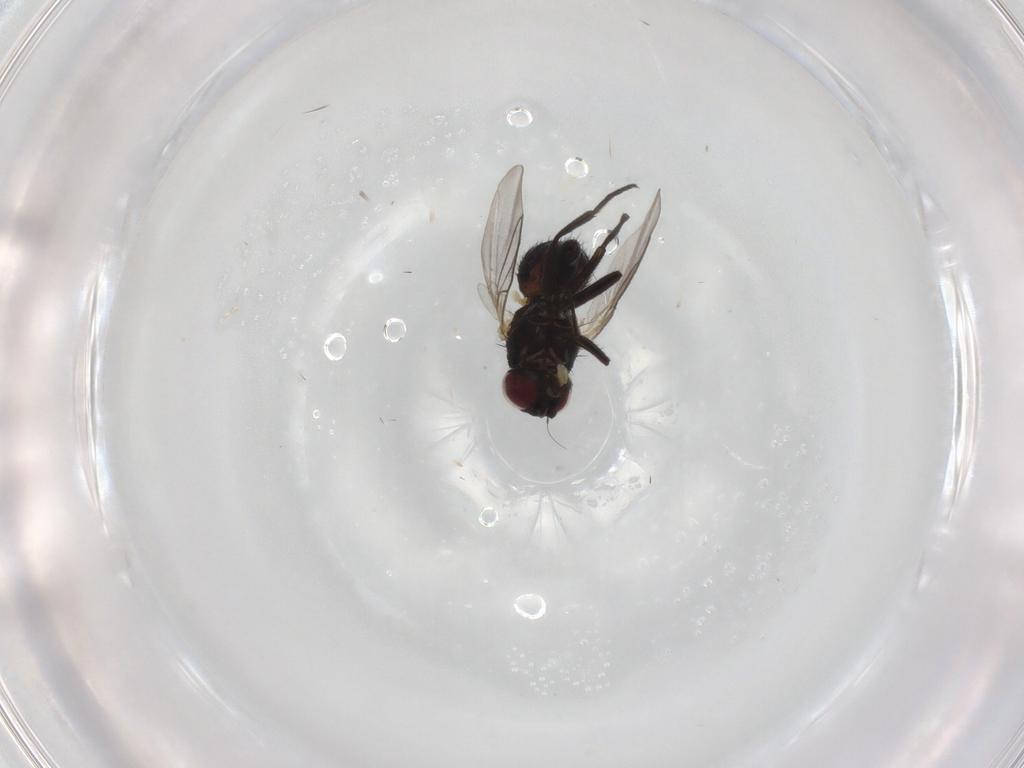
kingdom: Animalia
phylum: Arthropoda
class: Insecta
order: Diptera
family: Agromyzidae
